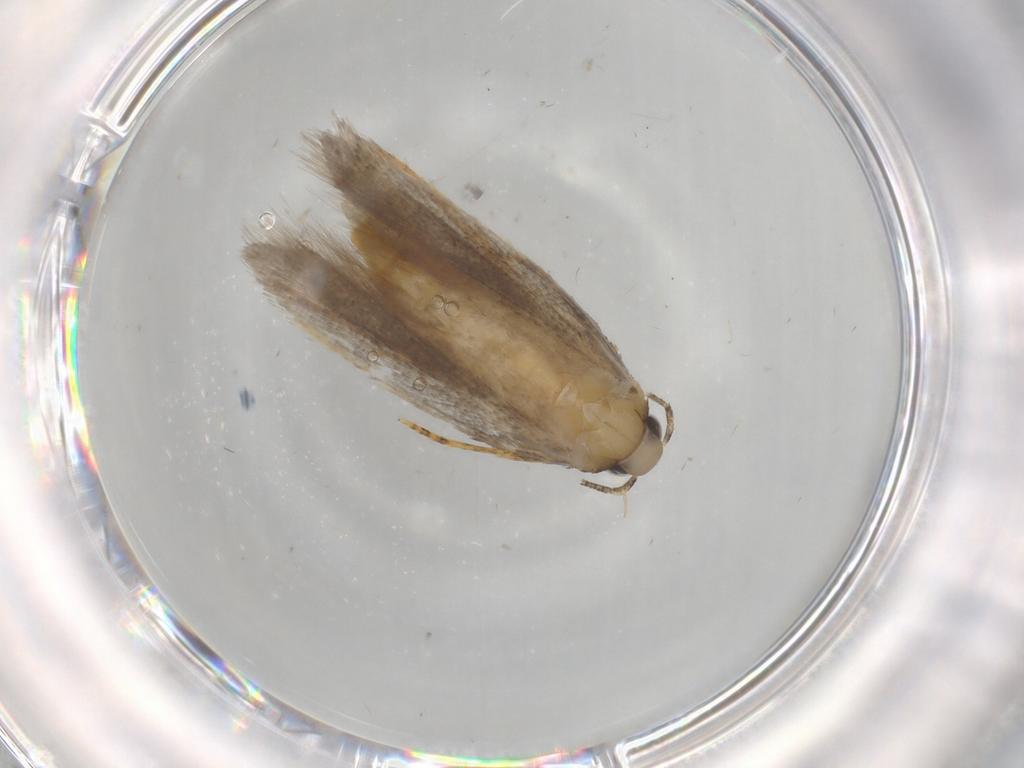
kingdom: Animalia
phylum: Arthropoda
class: Insecta
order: Lepidoptera
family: Autostichidae
